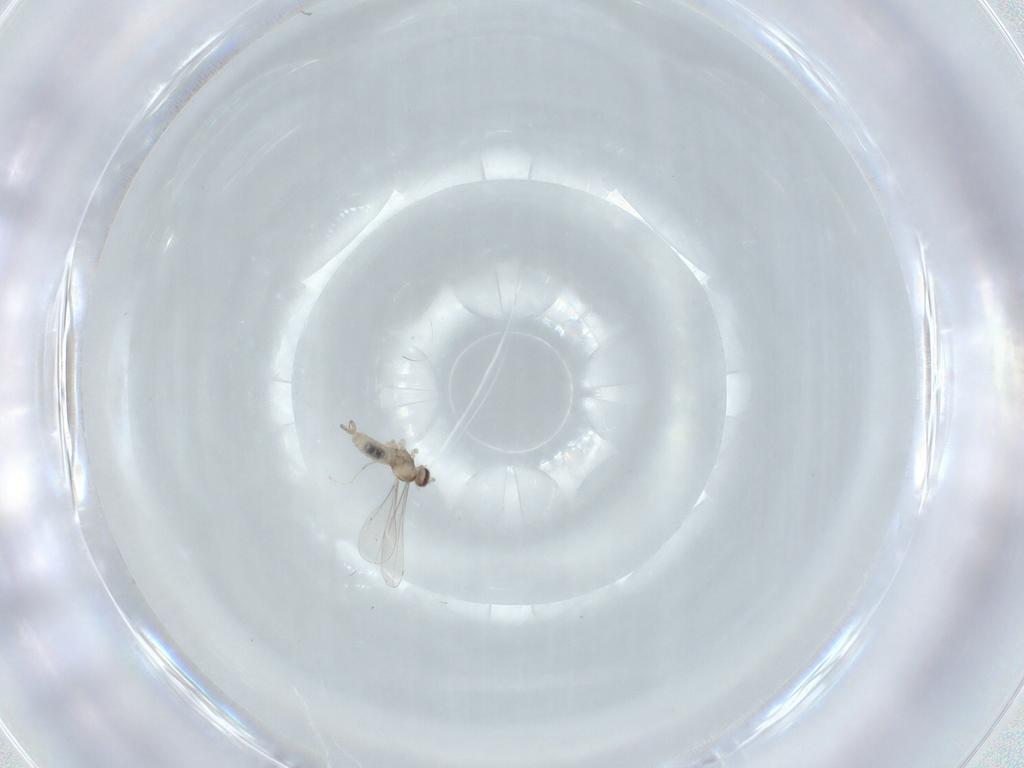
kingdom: Animalia
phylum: Arthropoda
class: Insecta
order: Diptera
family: Cecidomyiidae
